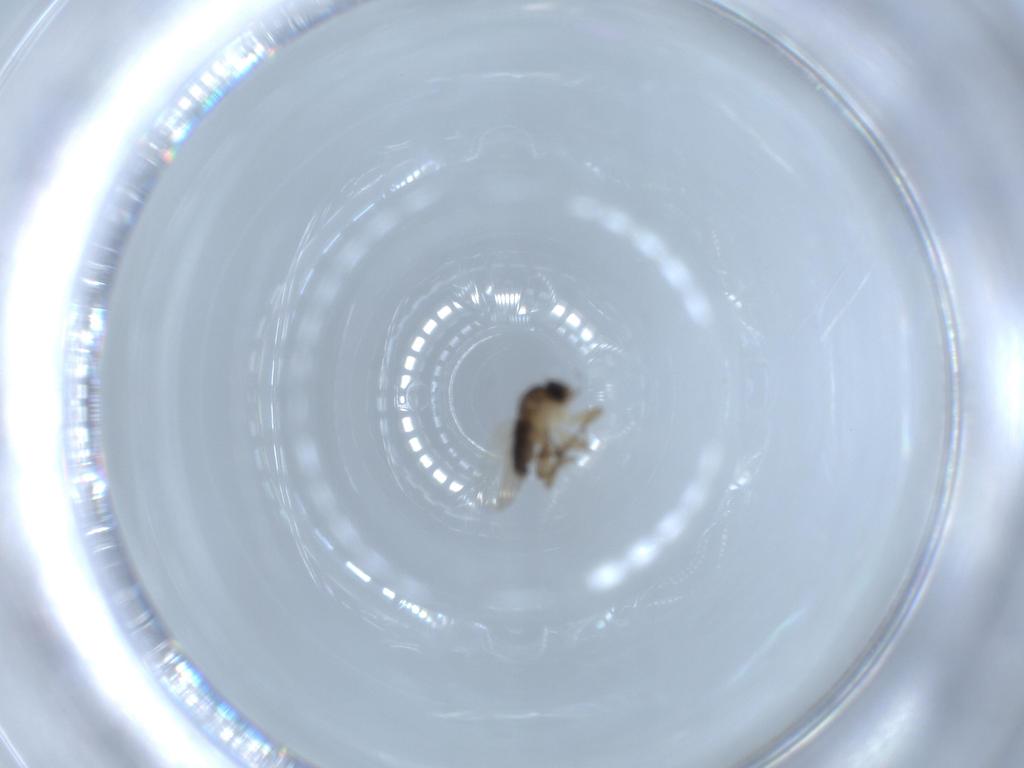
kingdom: Animalia
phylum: Arthropoda
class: Insecta
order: Diptera
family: Phoridae
